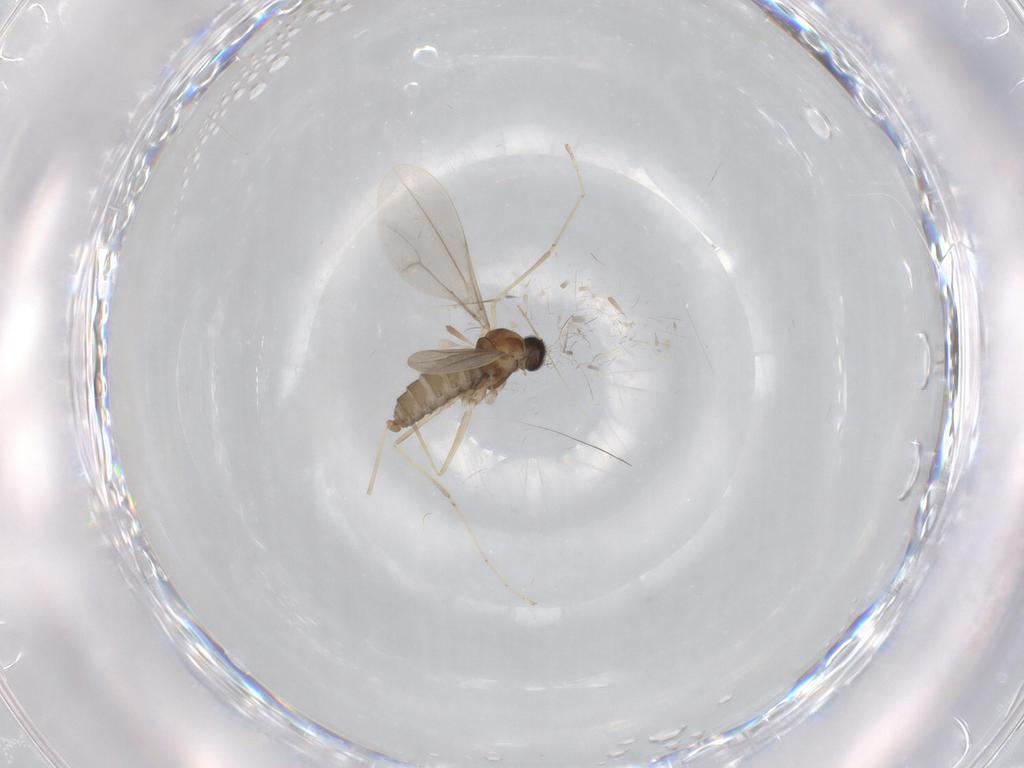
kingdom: Animalia
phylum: Arthropoda
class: Insecta
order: Diptera
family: Cecidomyiidae
